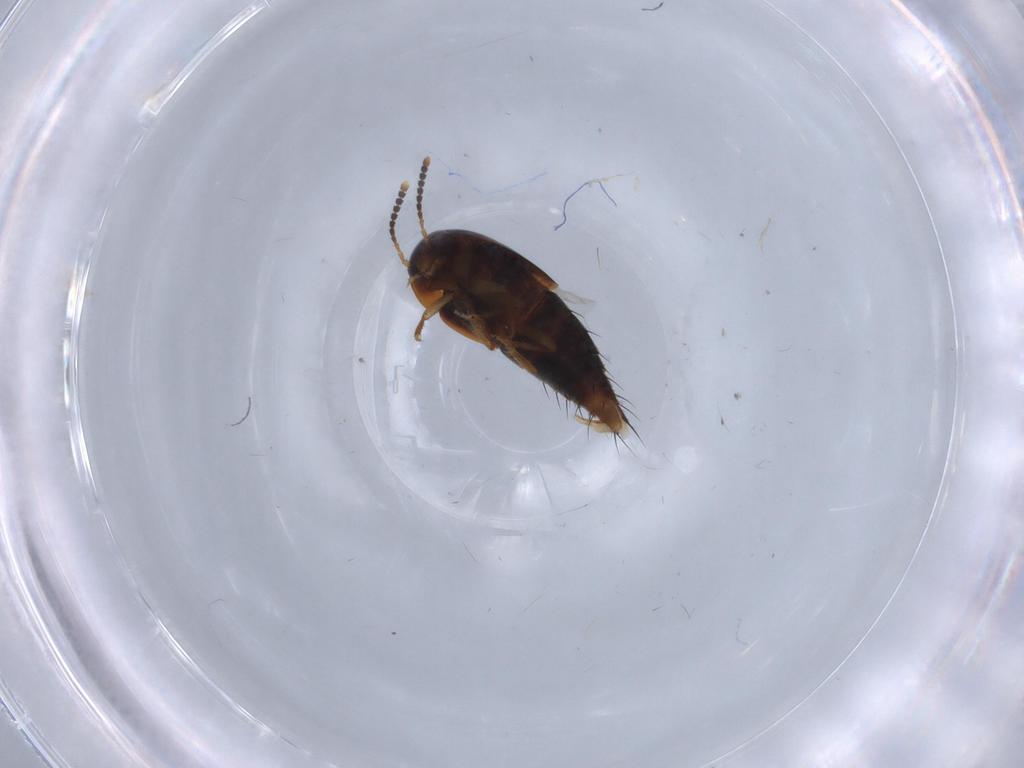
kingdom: Animalia
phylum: Arthropoda
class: Insecta
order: Coleoptera
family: Staphylinidae
